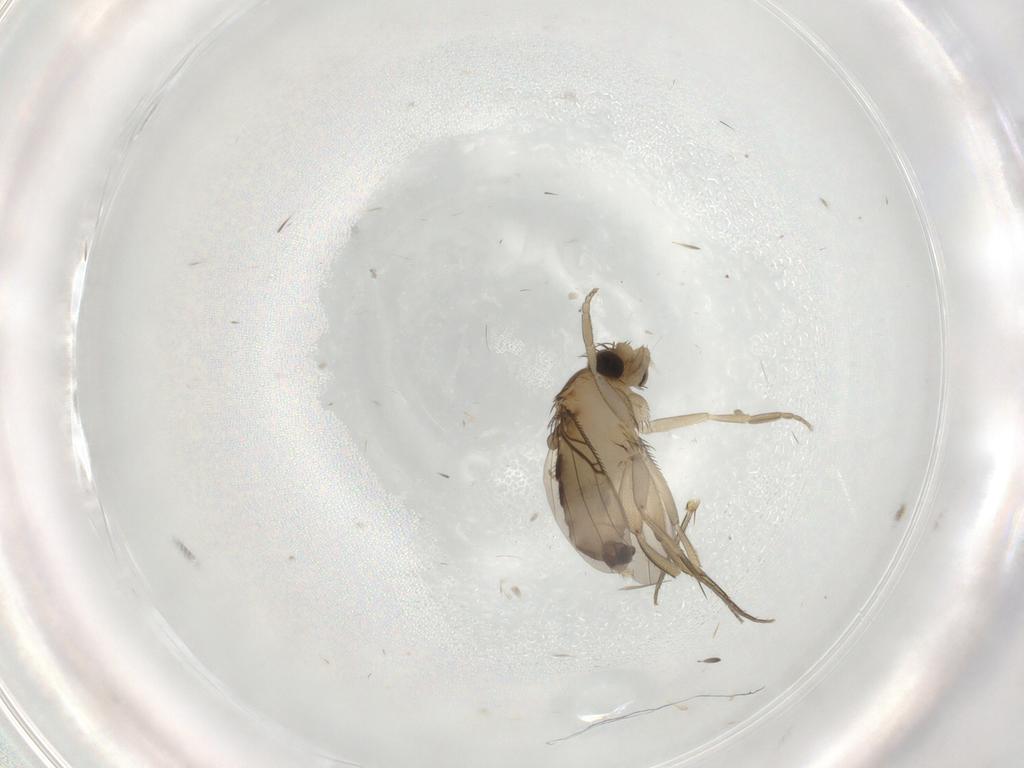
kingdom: Animalia
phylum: Arthropoda
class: Insecta
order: Diptera
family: Phoridae
